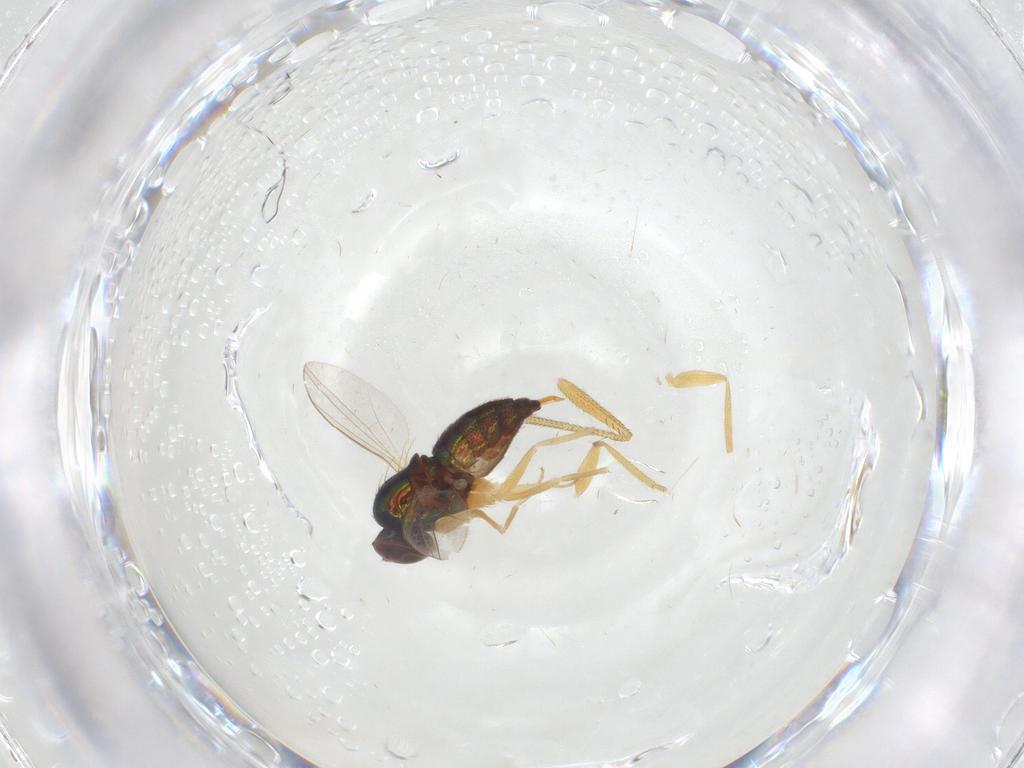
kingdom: Animalia
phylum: Arthropoda
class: Insecta
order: Diptera
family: Dolichopodidae
